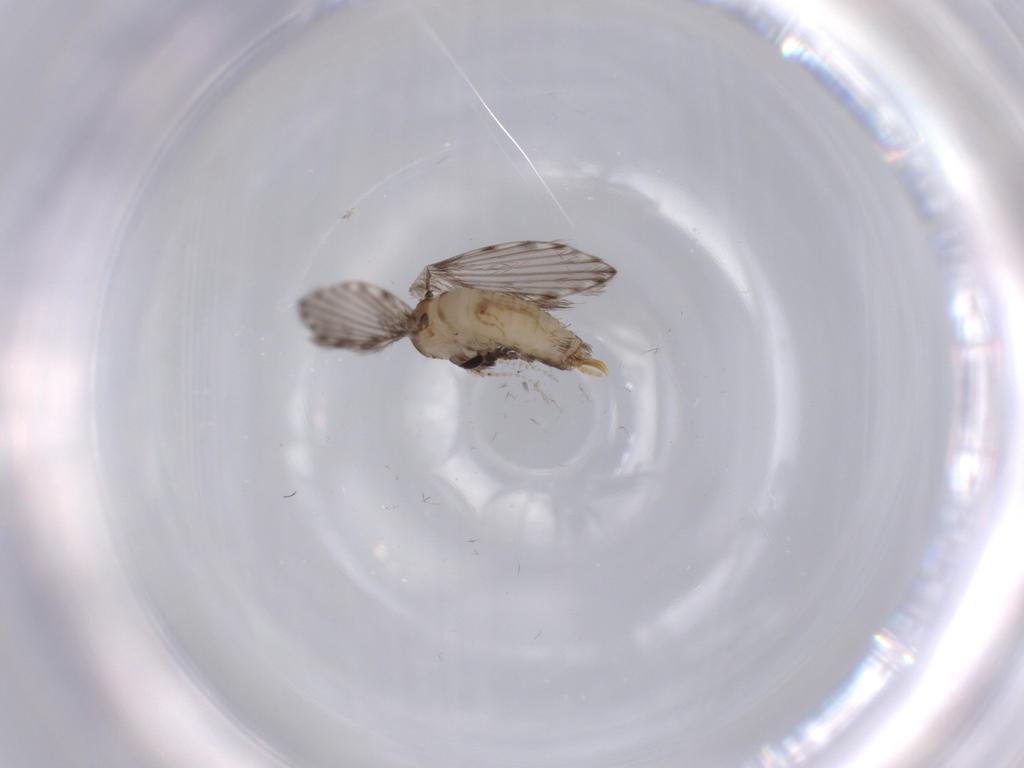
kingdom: Animalia
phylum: Arthropoda
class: Insecta
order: Diptera
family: Psychodidae
